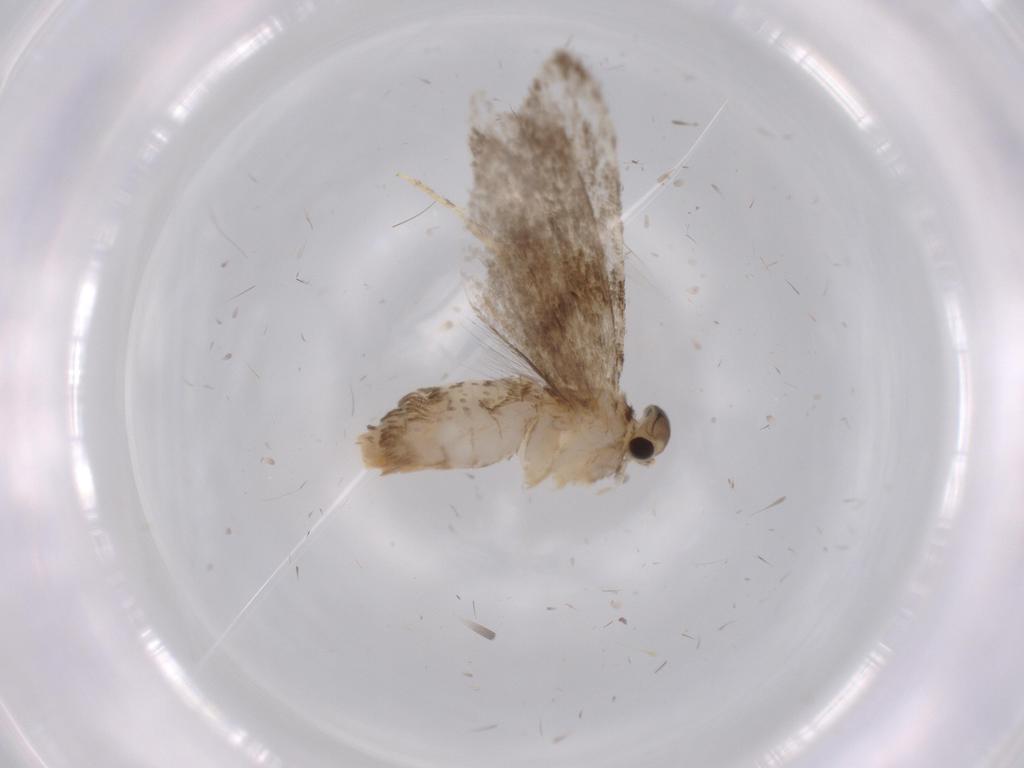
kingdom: Animalia
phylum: Arthropoda
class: Insecta
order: Lepidoptera
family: Tineidae
